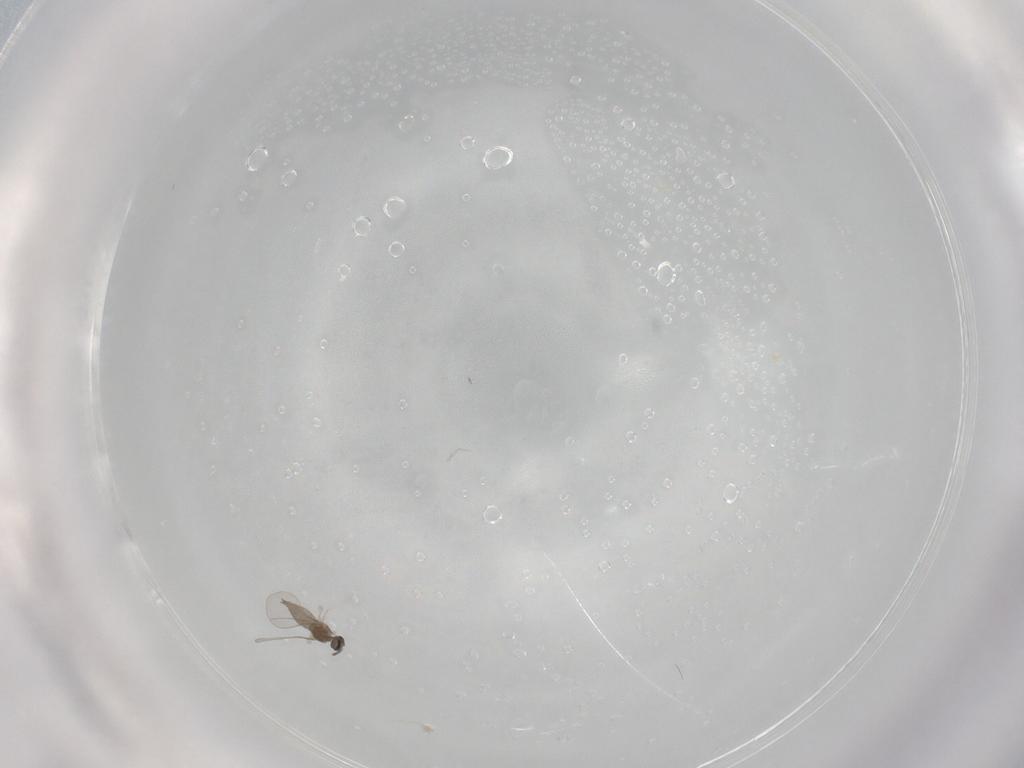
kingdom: Animalia
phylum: Arthropoda
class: Insecta
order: Diptera
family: Cecidomyiidae
